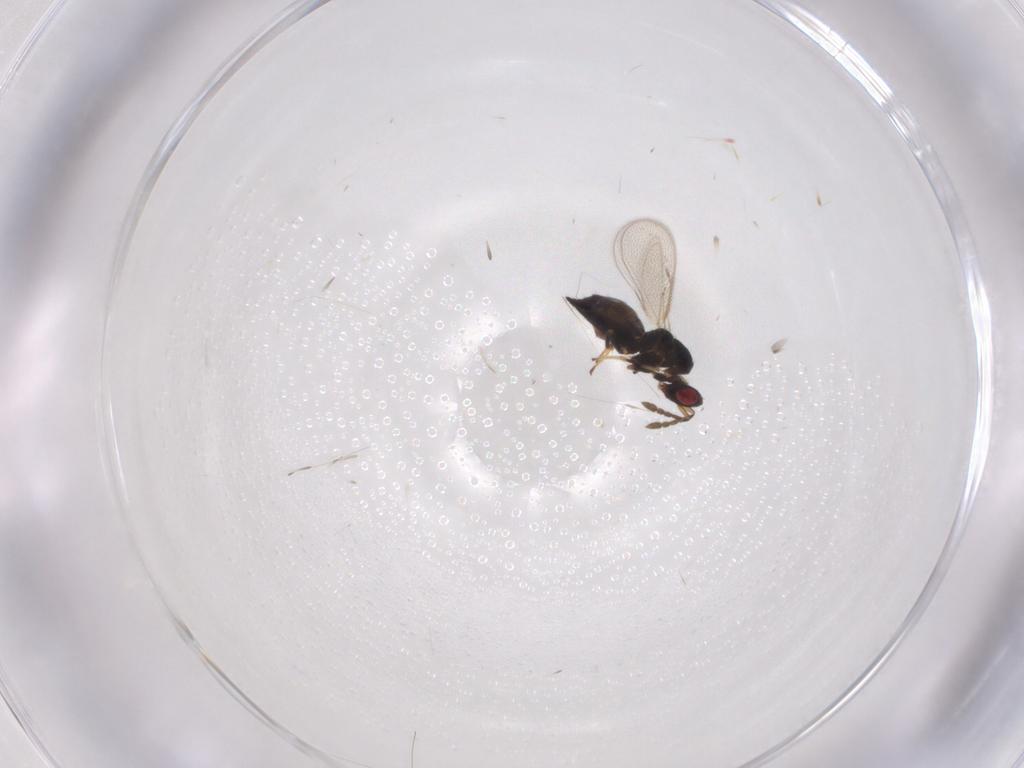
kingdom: Animalia
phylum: Arthropoda
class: Insecta
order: Hymenoptera
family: Eulophidae
